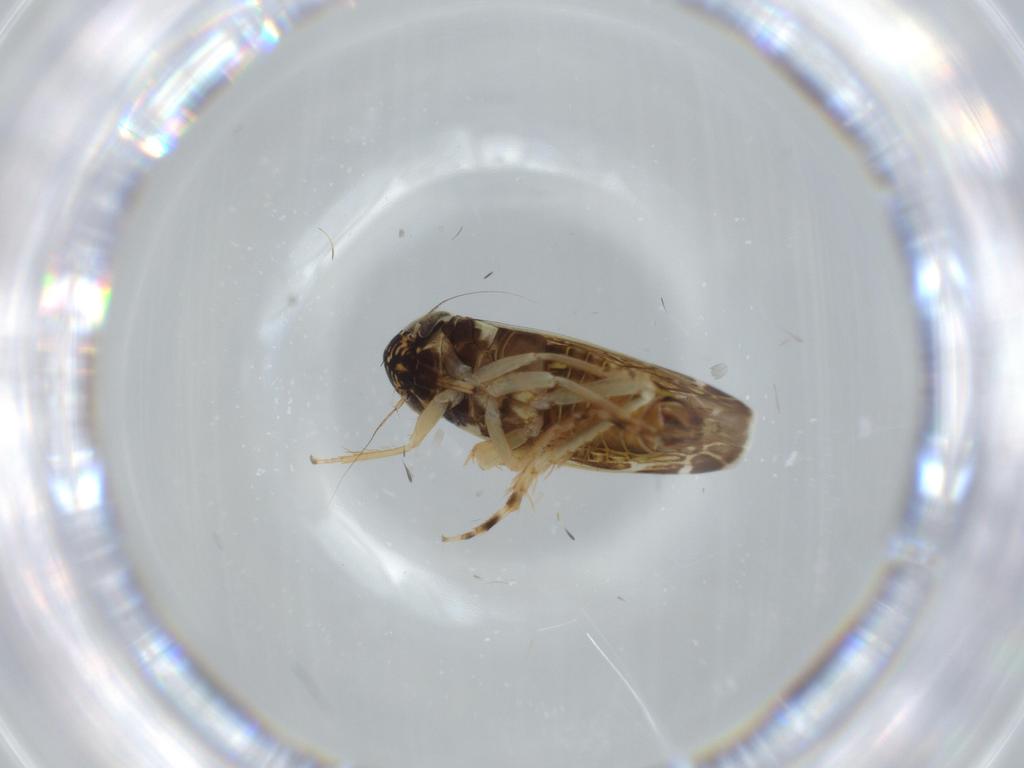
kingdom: Animalia
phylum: Arthropoda
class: Insecta
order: Hemiptera
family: Cicadellidae
